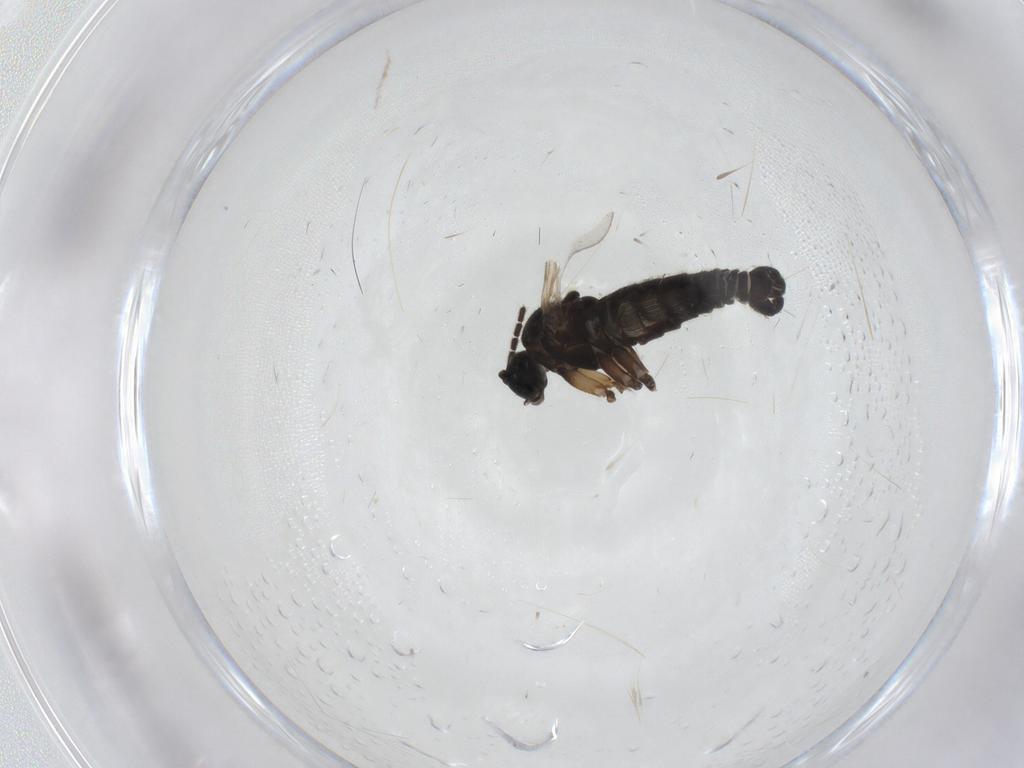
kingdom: Animalia
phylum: Arthropoda
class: Insecta
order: Diptera
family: Sciaridae
